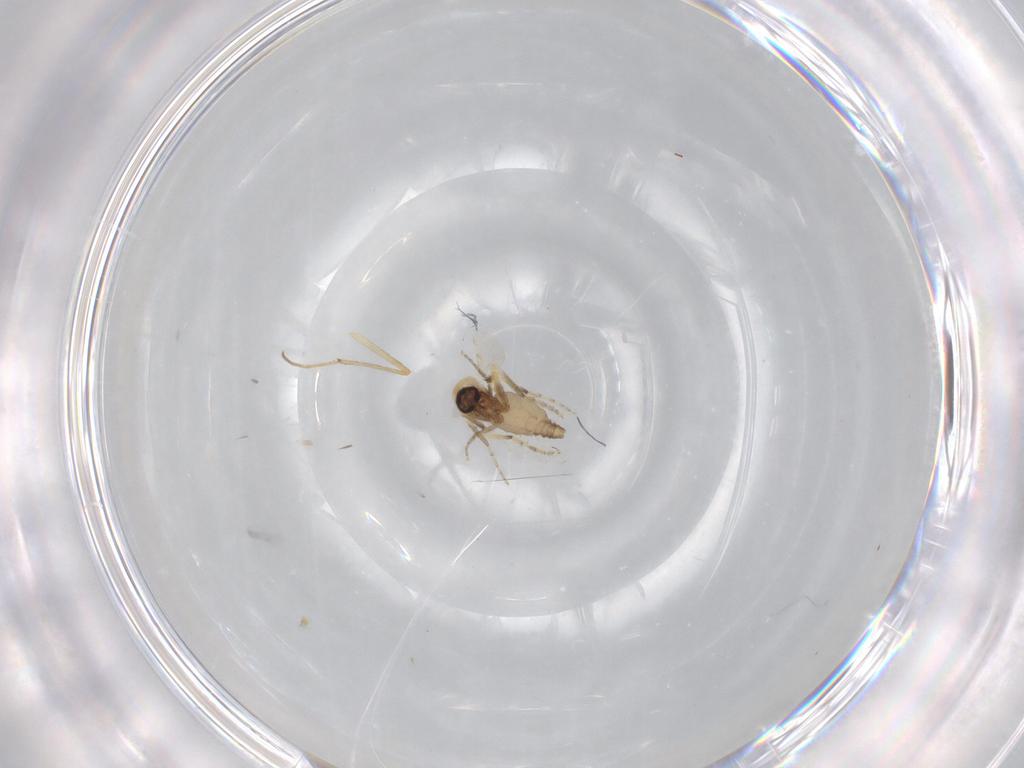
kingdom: Animalia
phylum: Arthropoda
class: Insecta
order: Diptera
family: Ceratopogonidae
